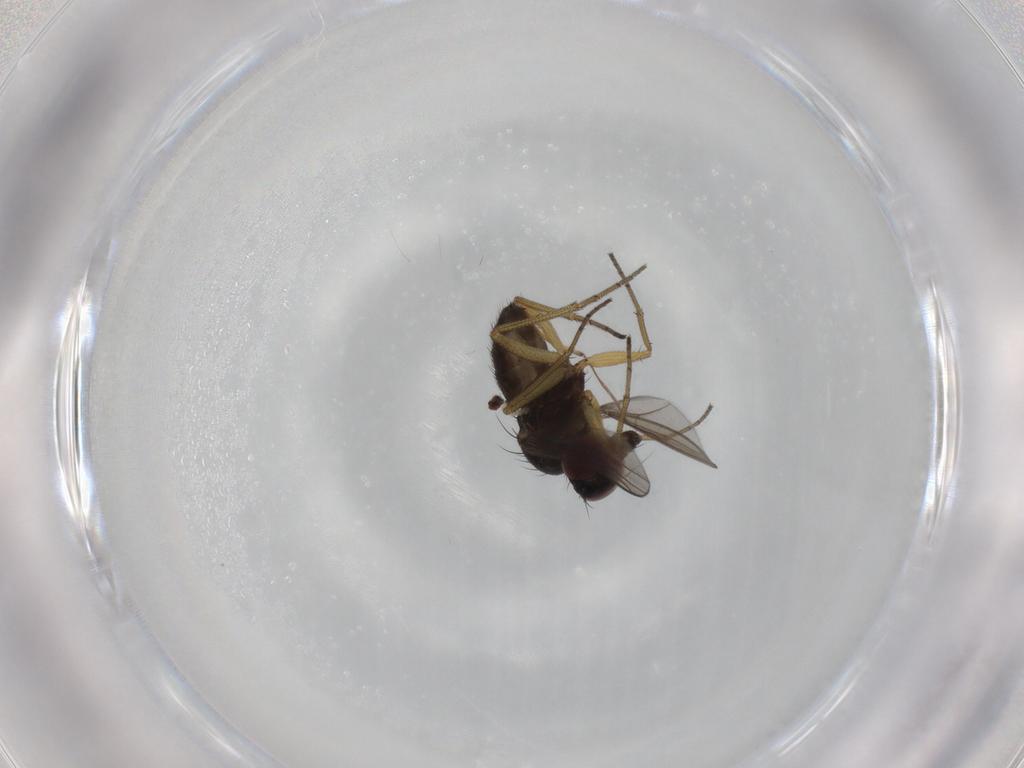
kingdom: Animalia
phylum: Arthropoda
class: Insecta
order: Diptera
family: Dolichopodidae
